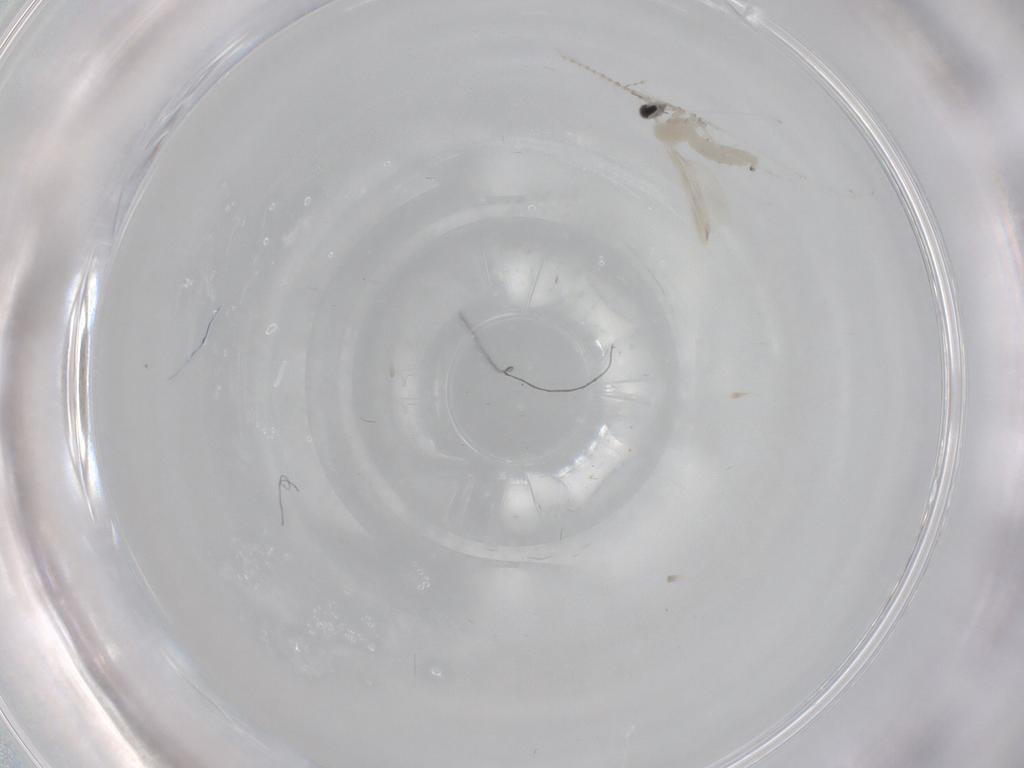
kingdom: Animalia
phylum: Arthropoda
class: Insecta
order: Diptera
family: Cecidomyiidae
